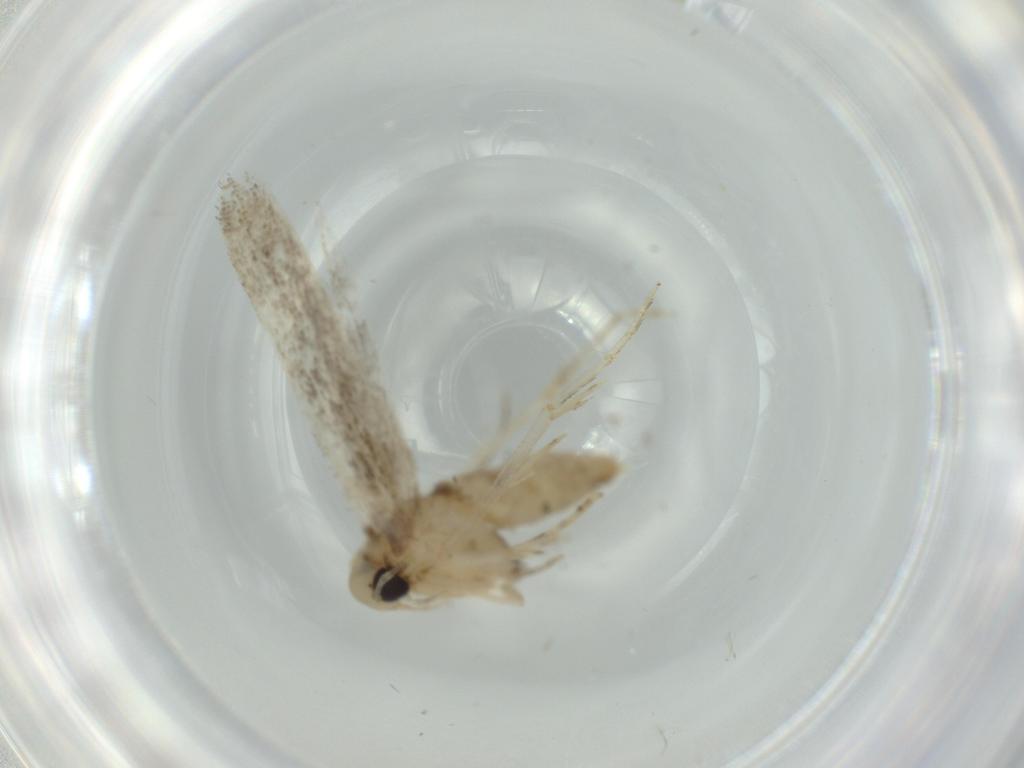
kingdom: Animalia
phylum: Arthropoda
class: Insecta
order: Lepidoptera
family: Cosmopterigidae
